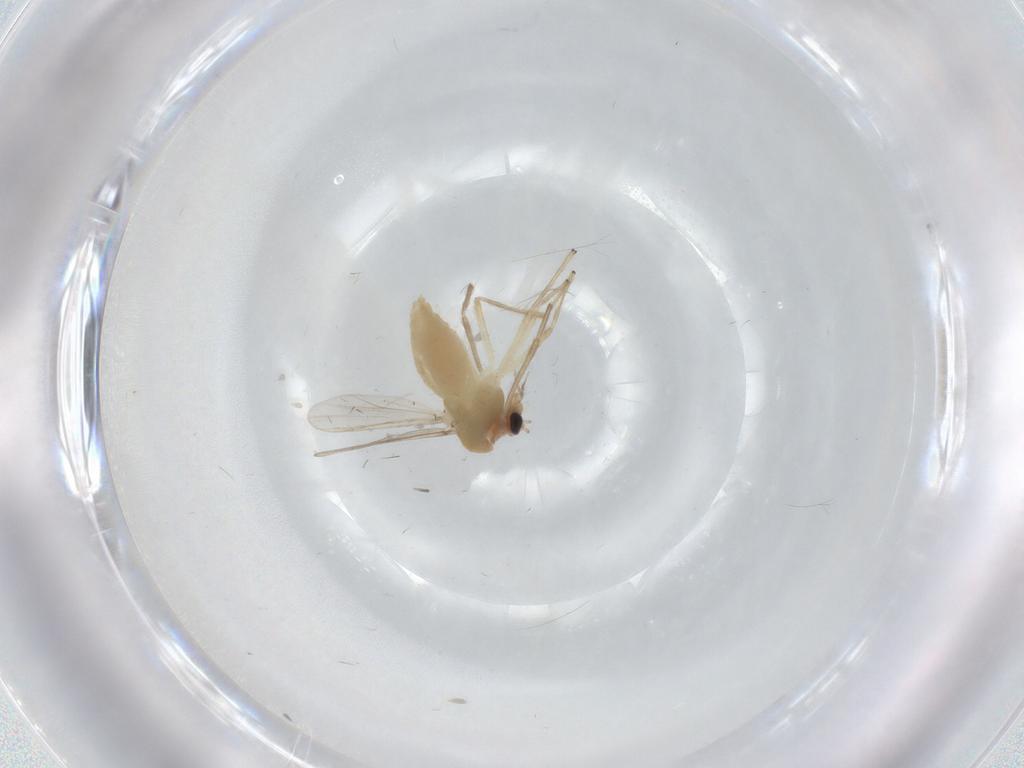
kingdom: Animalia
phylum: Arthropoda
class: Insecta
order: Diptera
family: Chironomidae
